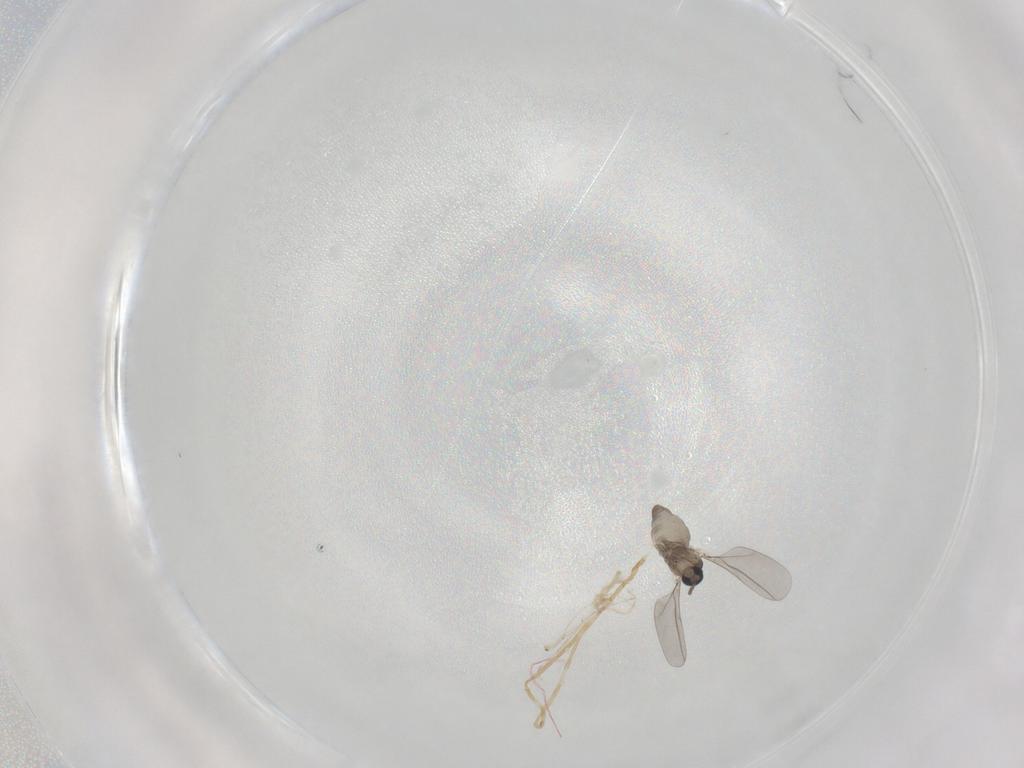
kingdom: Animalia
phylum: Arthropoda
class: Insecta
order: Diptera
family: Cecidomyiidae
